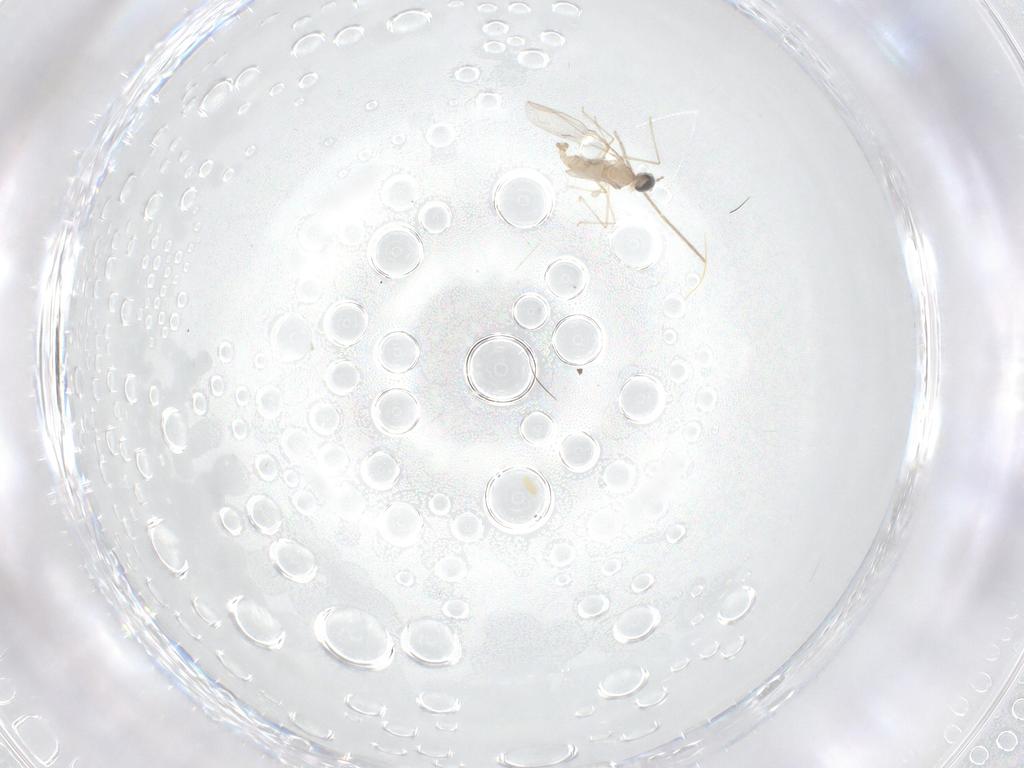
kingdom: Animalia
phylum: Arthropoda
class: Insecta
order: Diptera
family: Cecidomyiidae
